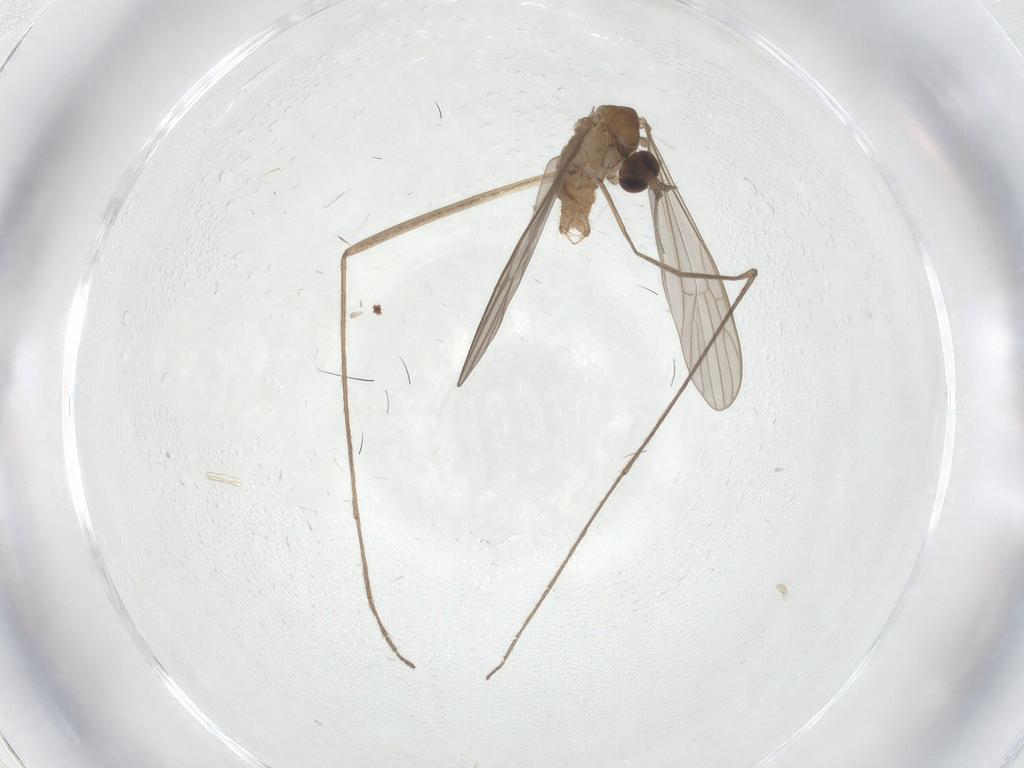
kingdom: Animalia
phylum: Arthropoda
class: Insecta
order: Diptera
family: Limoniidae
